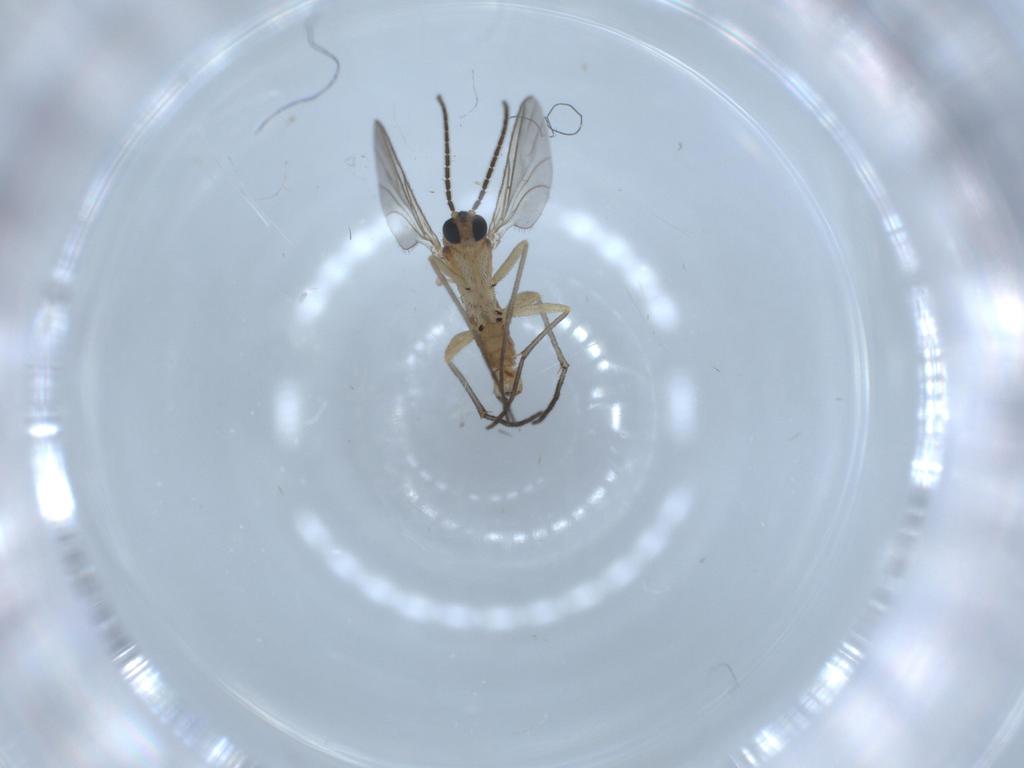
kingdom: Animalia
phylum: Arthropoda
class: Insecta
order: Diptera
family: Sciaridae
